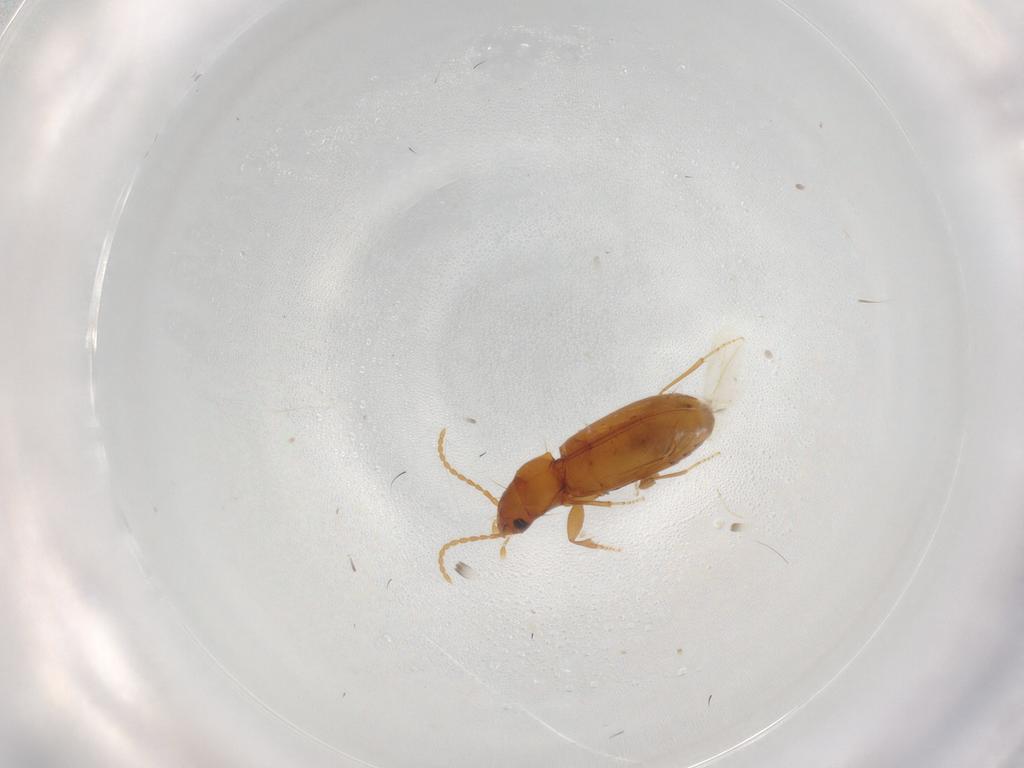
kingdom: Animalia
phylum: Arthropoda
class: Insecta
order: Coleoptera
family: Carabidae
